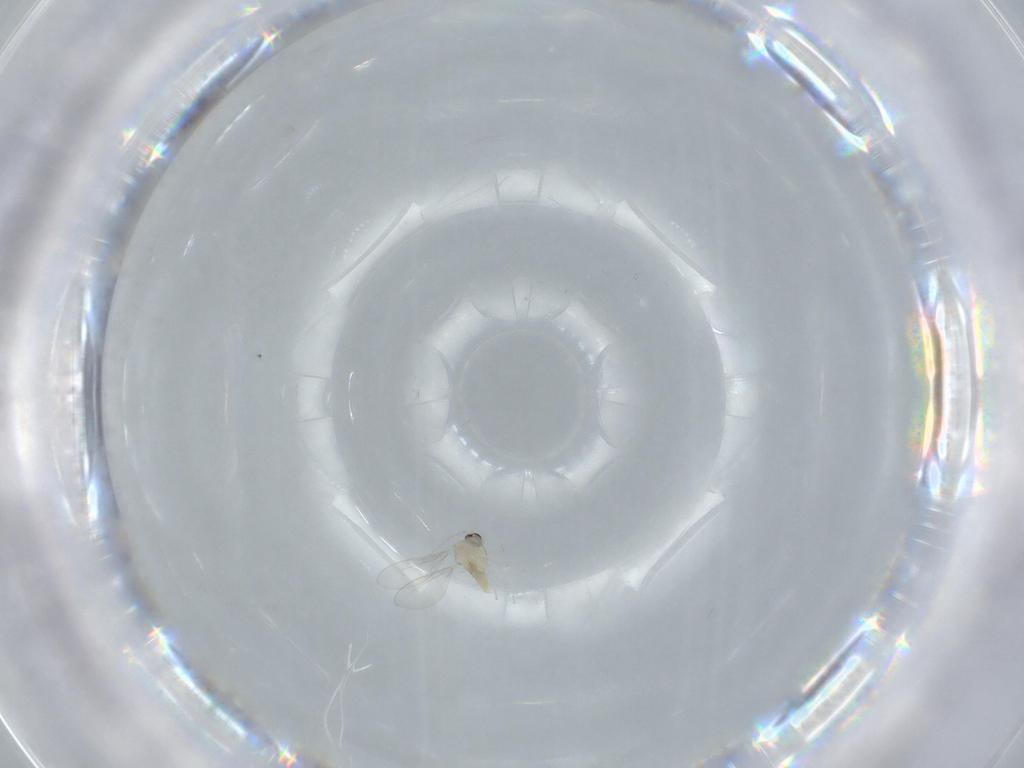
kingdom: Animalia
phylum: Arthropoda
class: Insecta
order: Diptera
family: Cecidomyiidae
